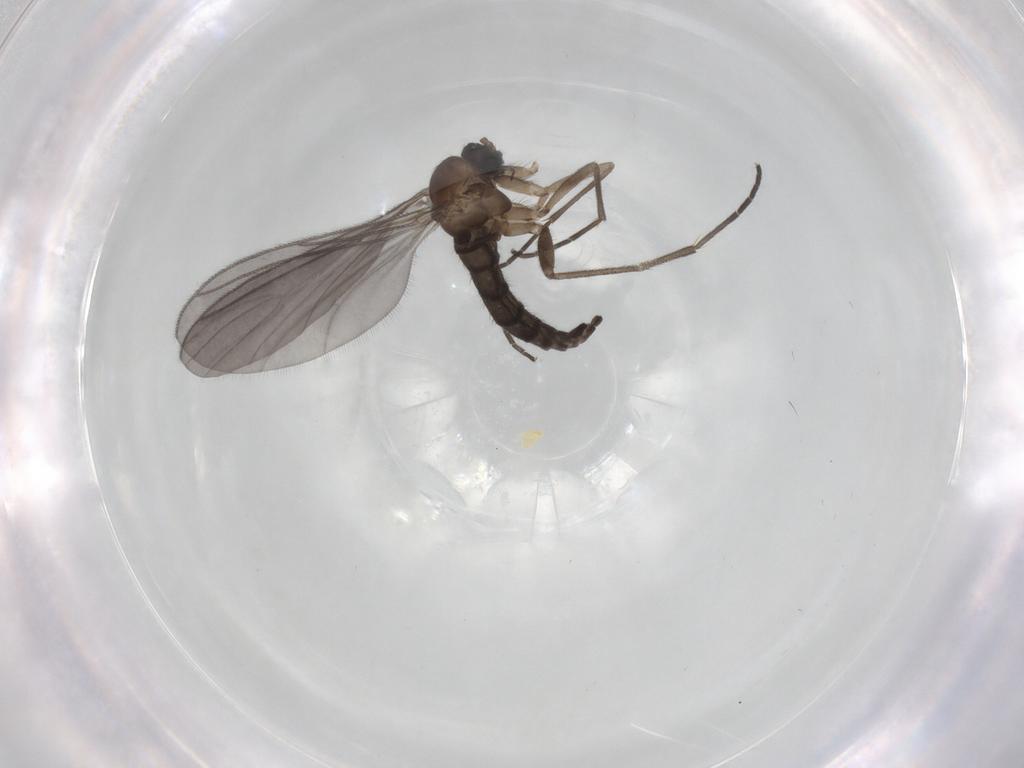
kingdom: Animalia
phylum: Arthropoda
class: Insecta
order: Diptera
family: Sciaridae
